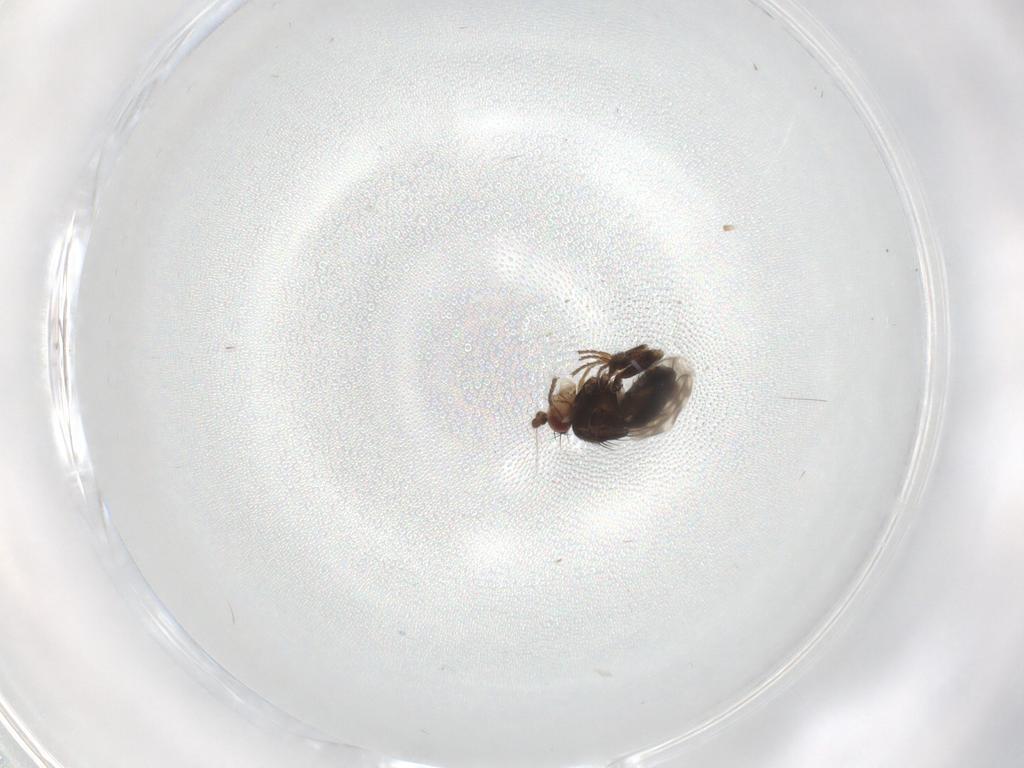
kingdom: Animalia
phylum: Arthropoda
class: Insecta
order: Diptera
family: Sphaeroceridae
